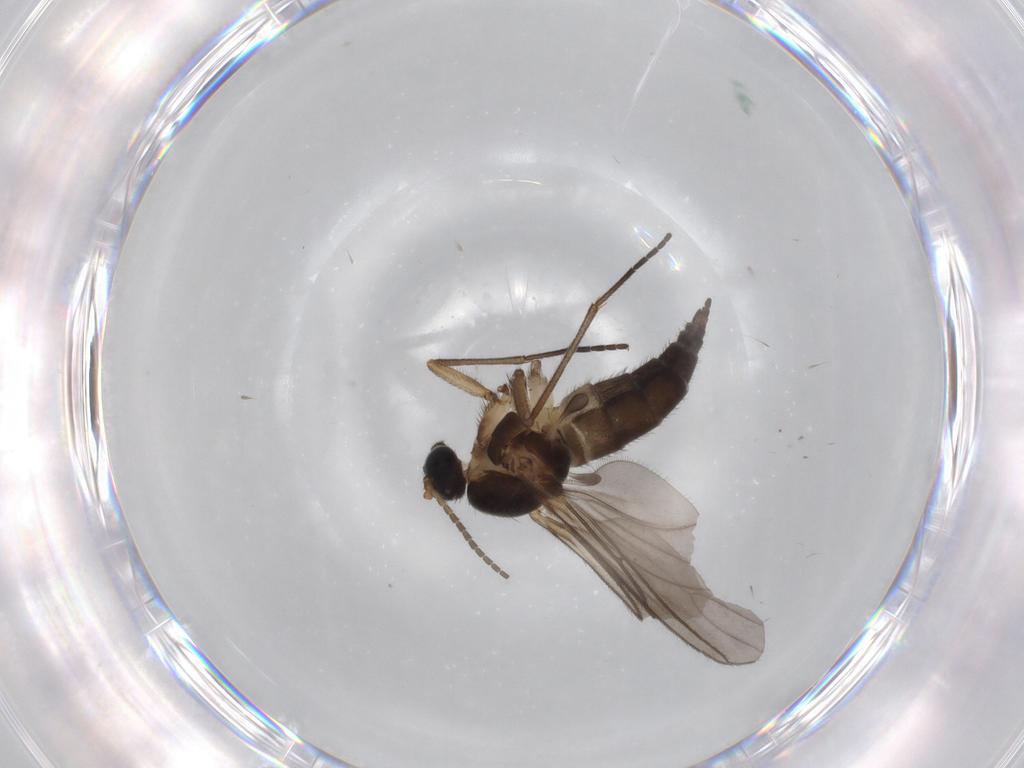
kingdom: Animalia
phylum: Arthropoda
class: Insecta
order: Diptera
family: Sciaridae
